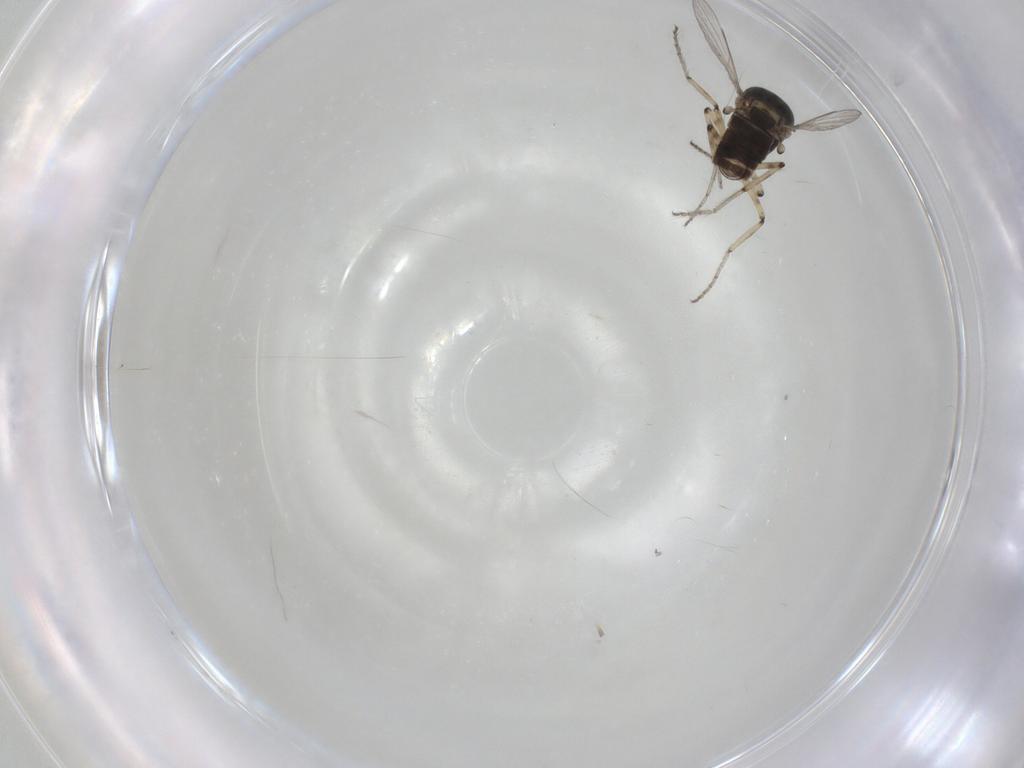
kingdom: Animalia
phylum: Arthropoda
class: Insecta
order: Diptera
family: Ceratopogonidae
